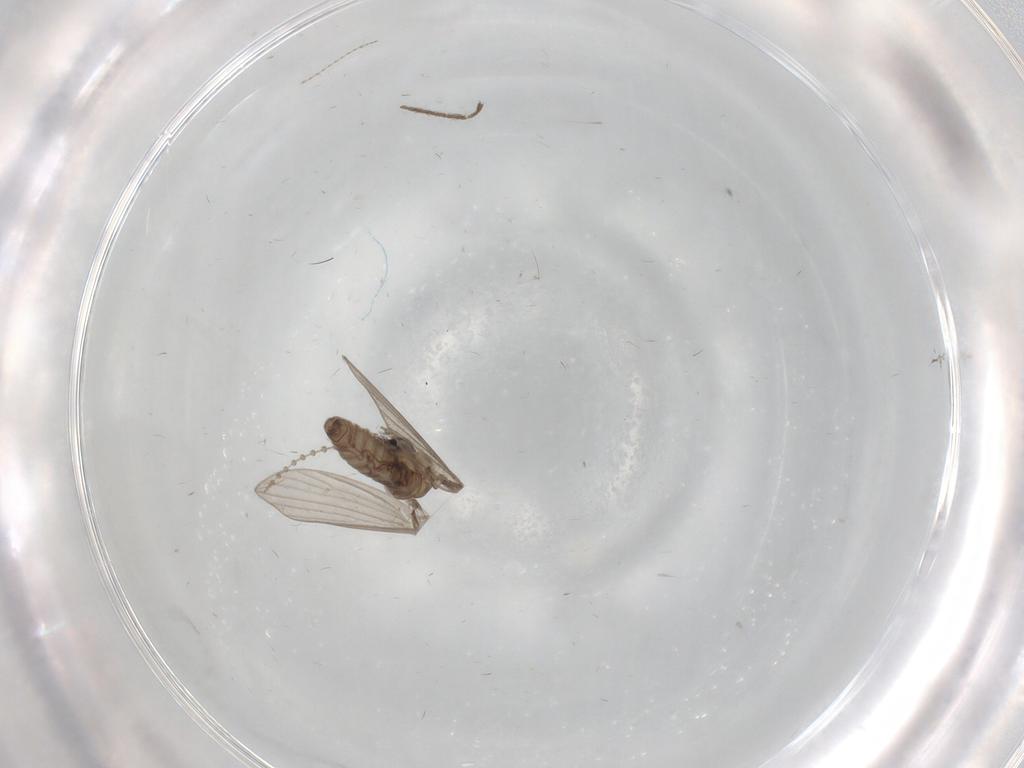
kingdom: Animalia
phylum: Arthropoda
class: Insecta
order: Diptera
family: Psychodidae
